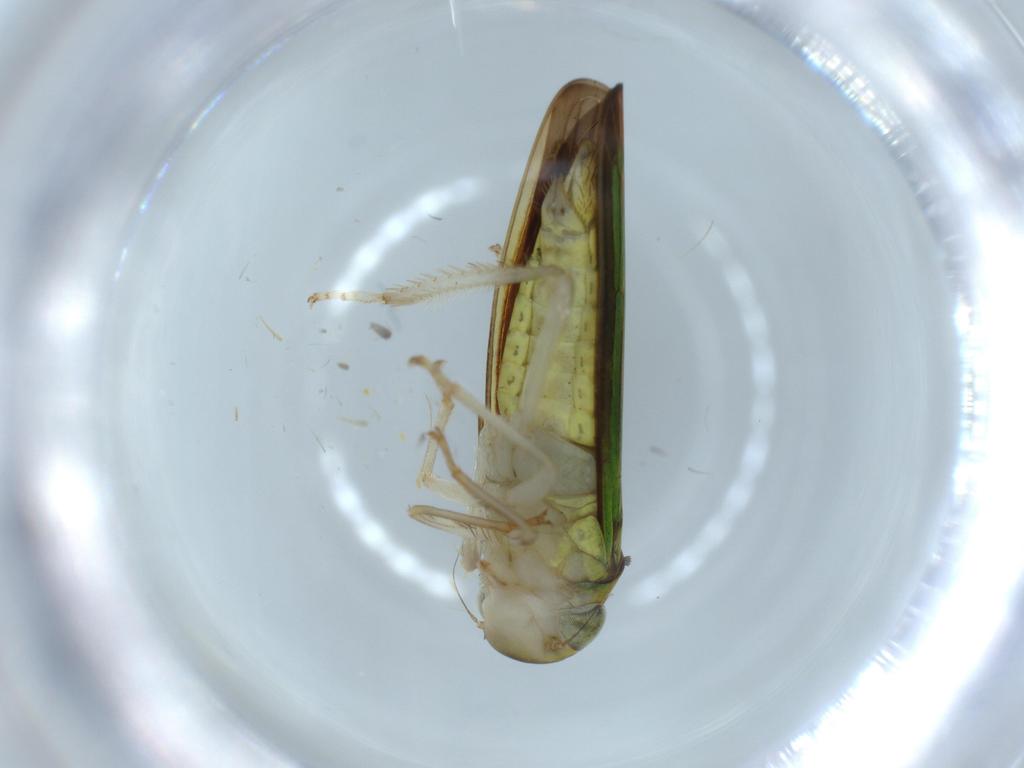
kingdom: Animalia
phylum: Arthropoda
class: Insecta
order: Hemiptera
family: Cicadellidae
